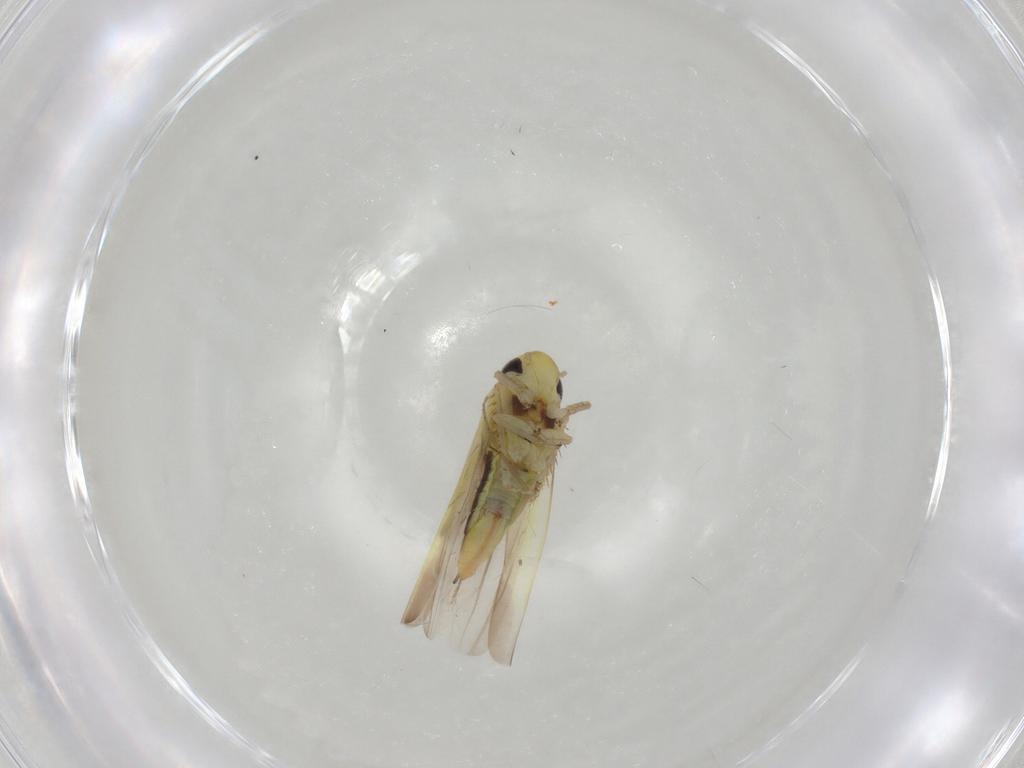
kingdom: Animalia
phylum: Arthropoda
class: Insecta
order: Hemiptera
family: Cicadellidae
